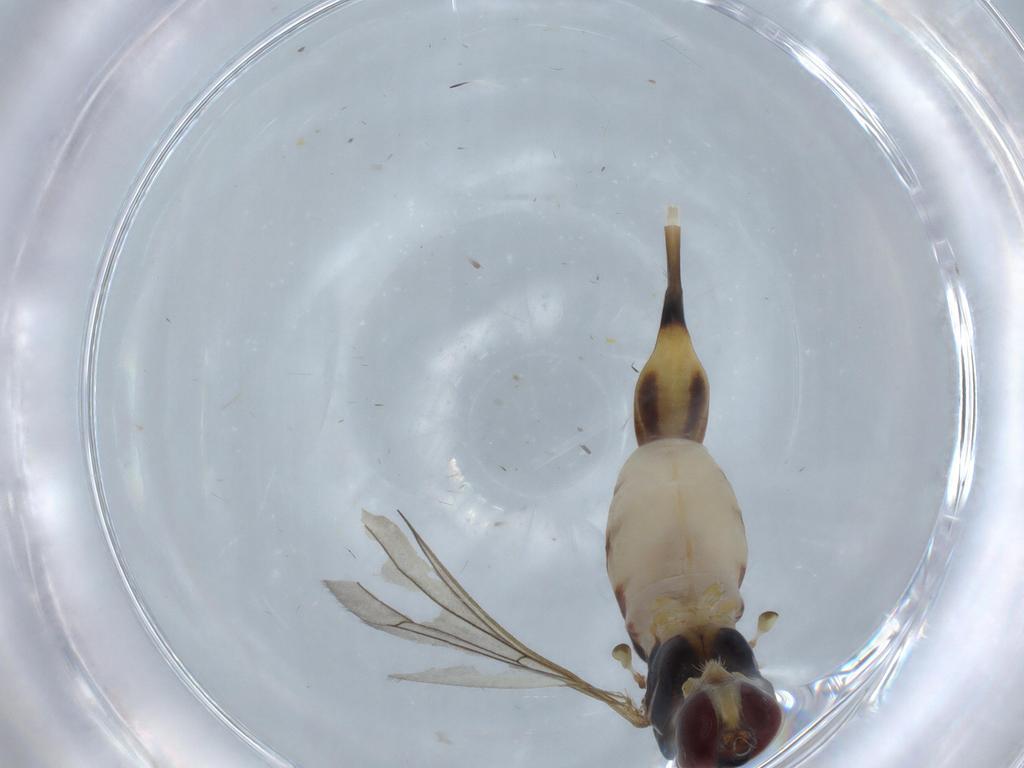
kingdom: Animalia
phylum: Arthropoda
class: Insecta
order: Diptera
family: Micropezidae
